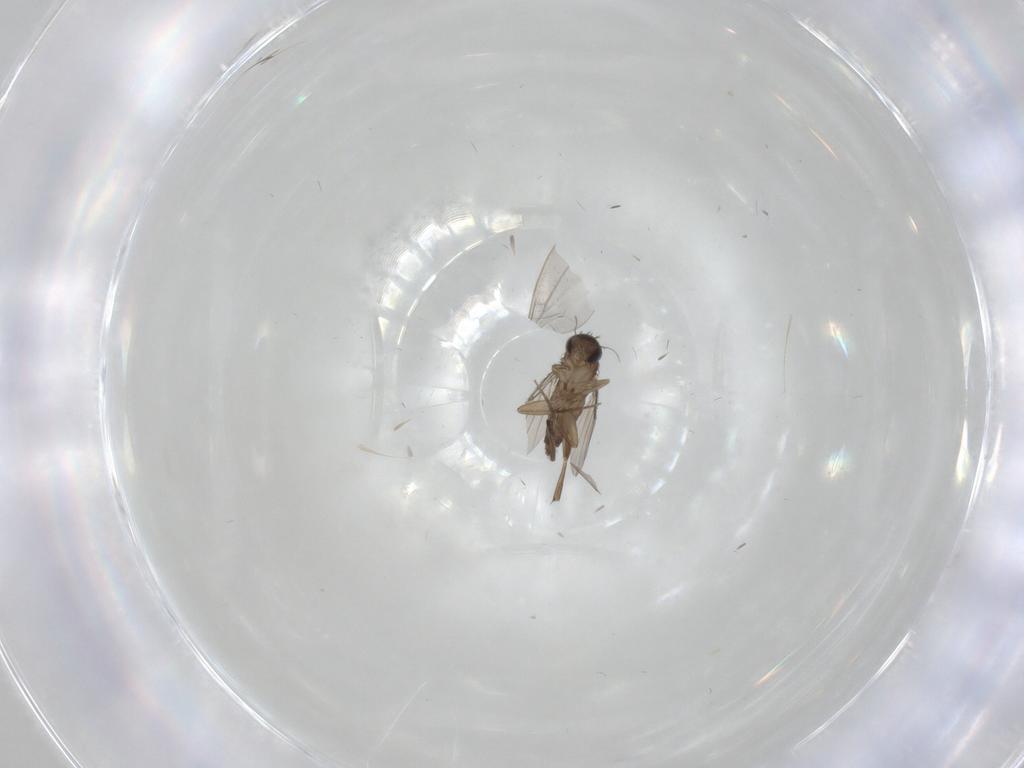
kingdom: Animalia
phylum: Arthropoda
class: Insecta
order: Diptera
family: Cecidomyiidae
